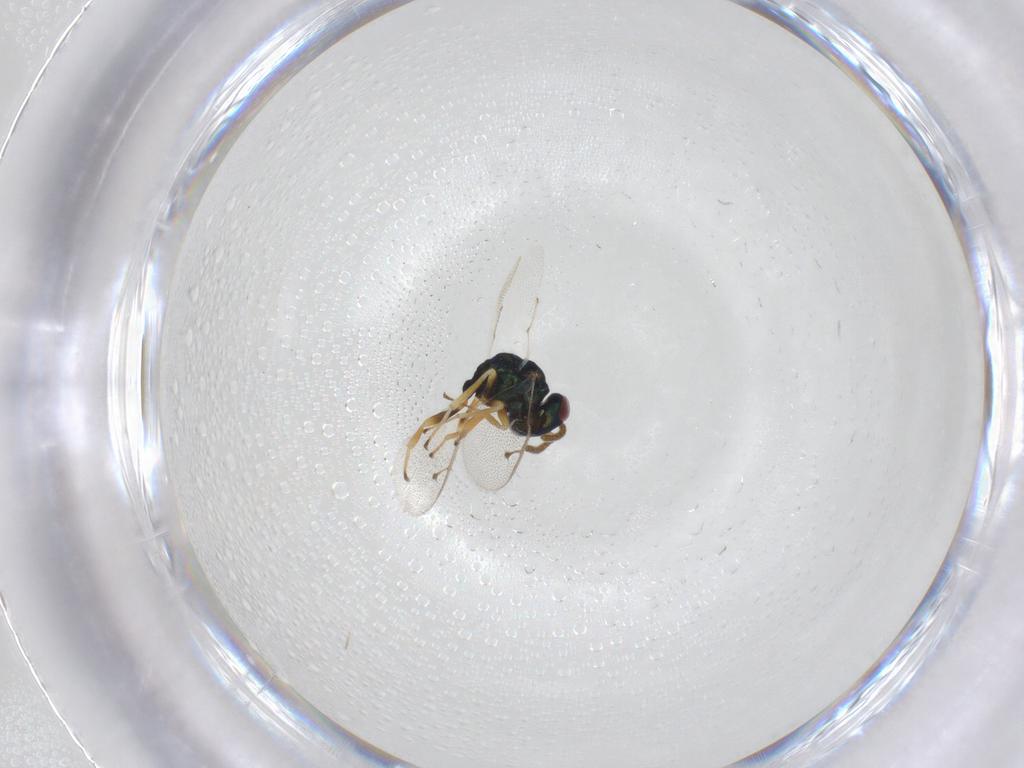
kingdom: Animalia
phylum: Arthropoda
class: Insecta
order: Hymenoptera
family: Pteromalidae
